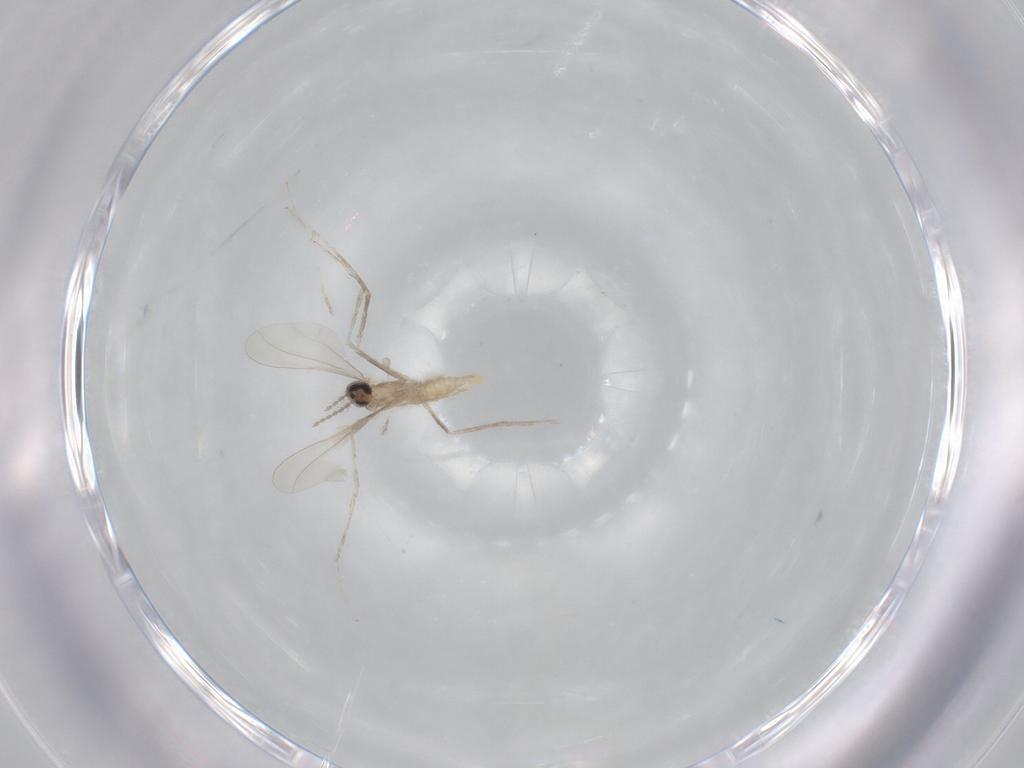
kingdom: Animalia
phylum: Arthropoda
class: Insecta
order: Diptera
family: Cecidomyiidae
